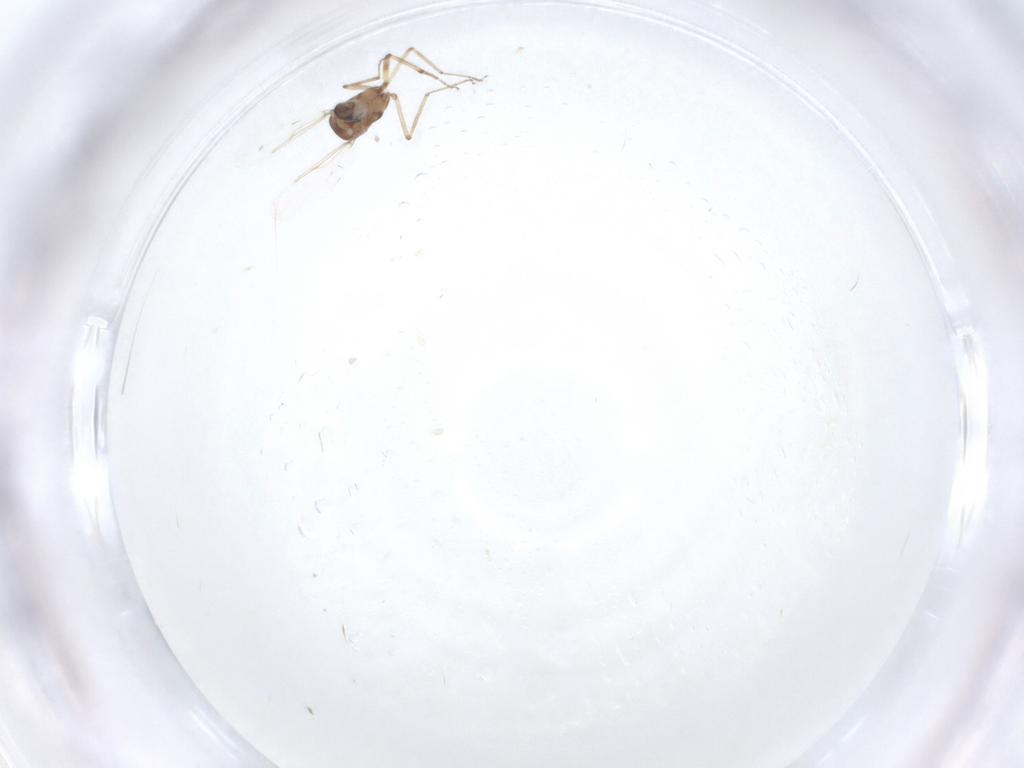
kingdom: Animalia
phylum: Arthropoda
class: Insecta
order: Diptera
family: Ceratopogonidae
